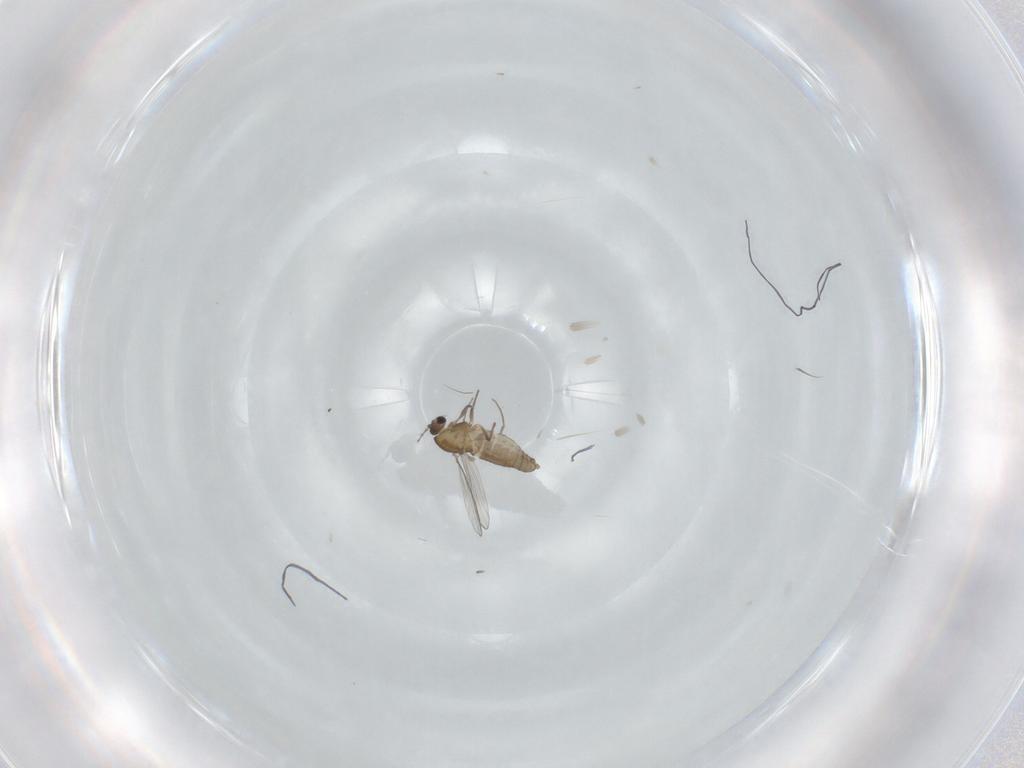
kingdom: Animalia
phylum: Arthropoda
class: Insecta
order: Diptera
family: Chironomidae
